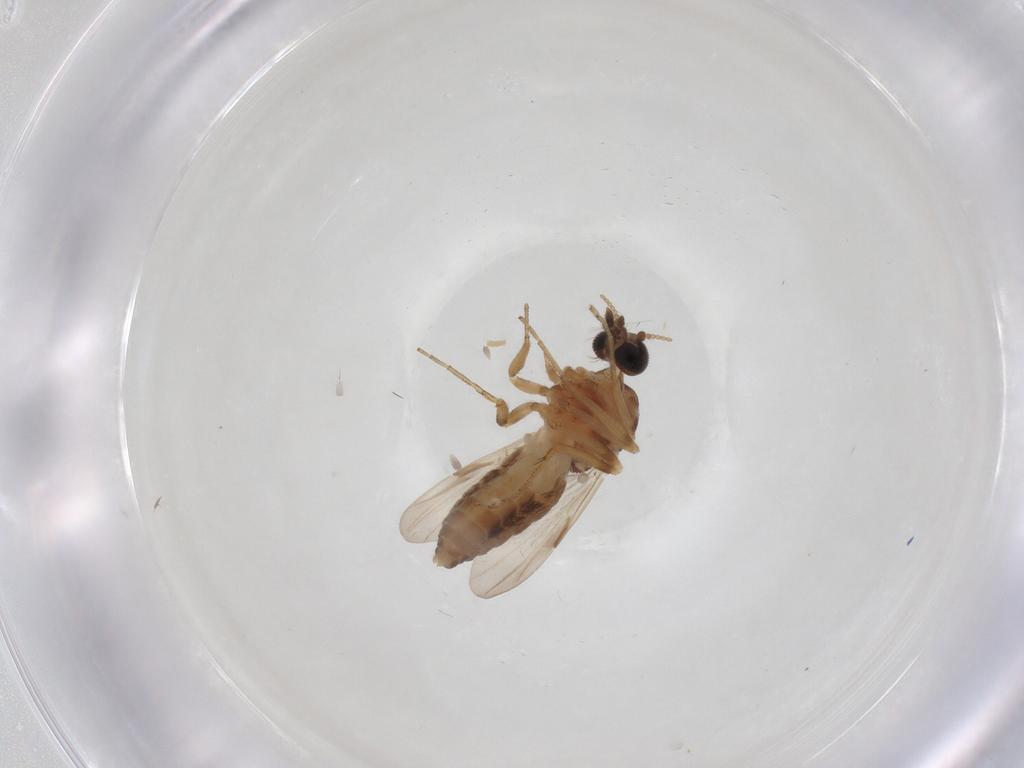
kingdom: Animalia
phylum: Arthropoda
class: Insecta
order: Diptera
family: Ceratopogonidae
